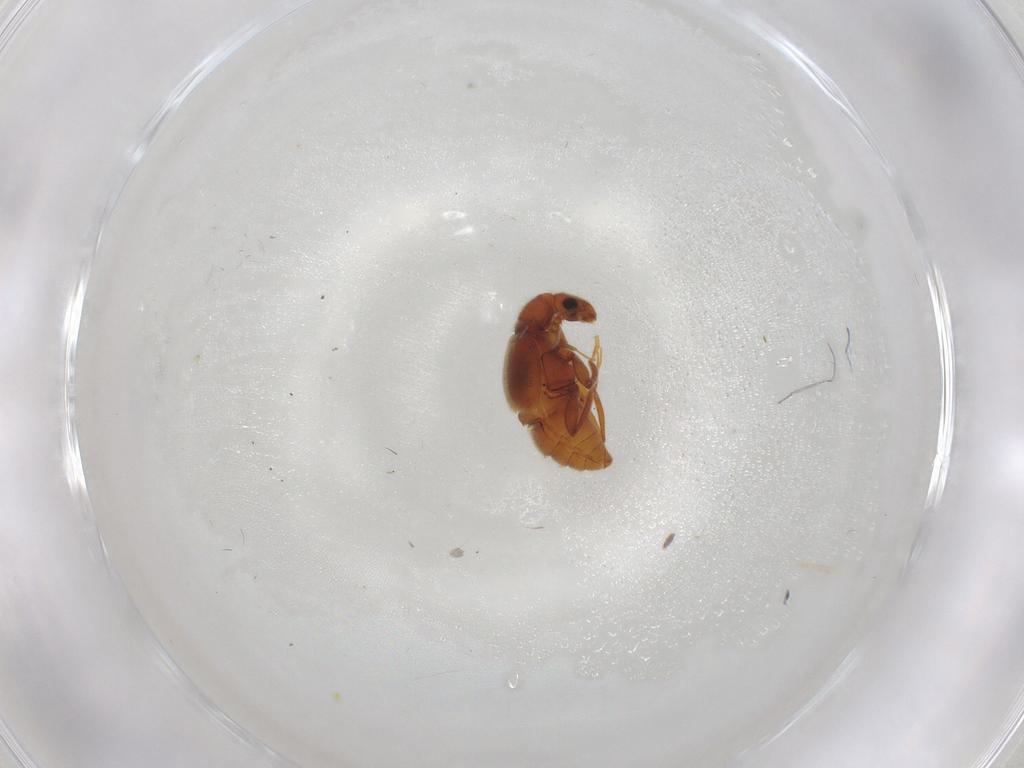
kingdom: Animalia
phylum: Arthropoda
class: Insecta
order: Coleoptera
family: Staphylinidae
